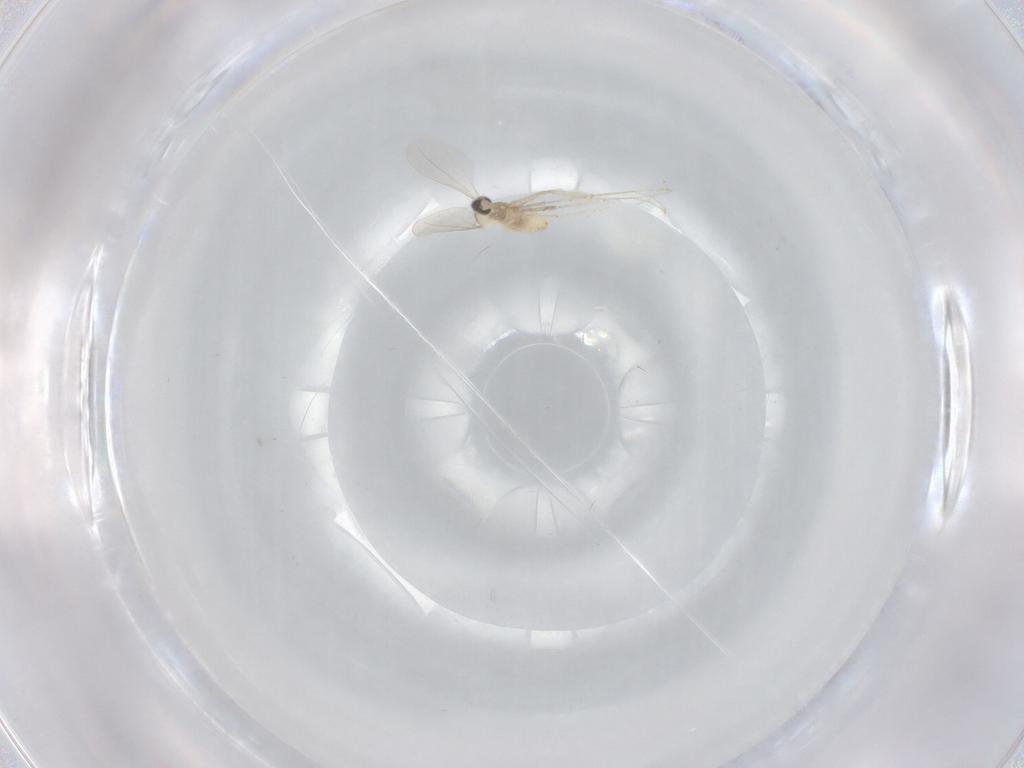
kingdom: Animalia
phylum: Arthropoda
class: Insecta
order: Diptera
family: Cecidomyiidae
